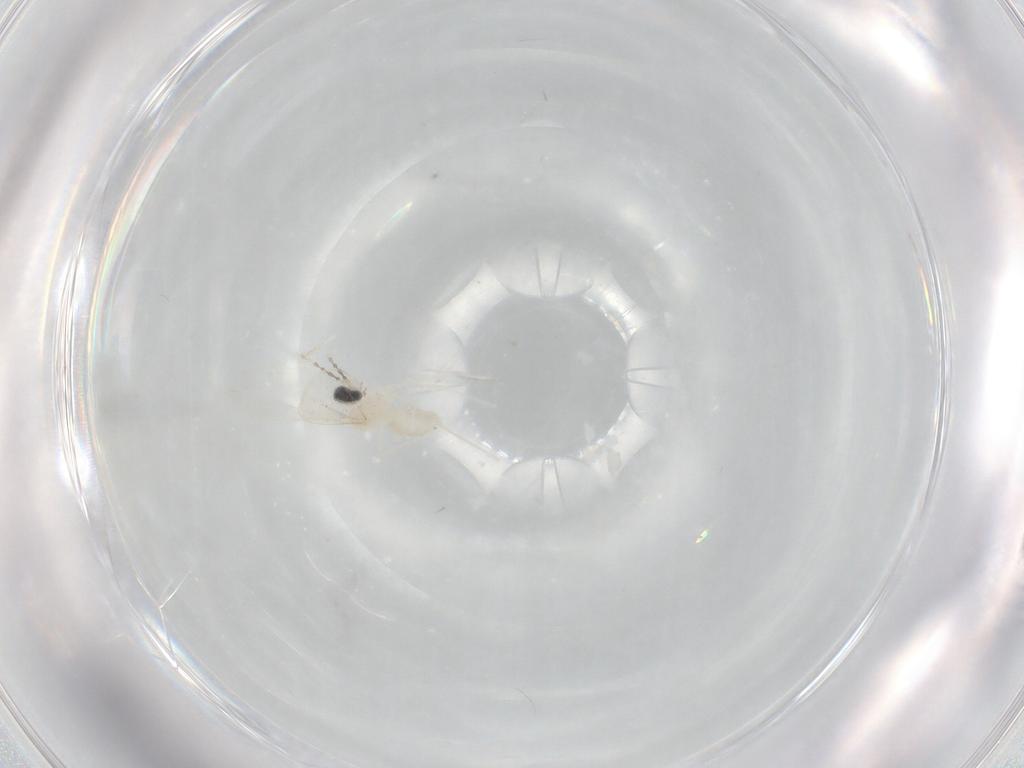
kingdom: Animalia
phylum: Arthropoda
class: Insecta
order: Diptera
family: Cecidomyiidae
